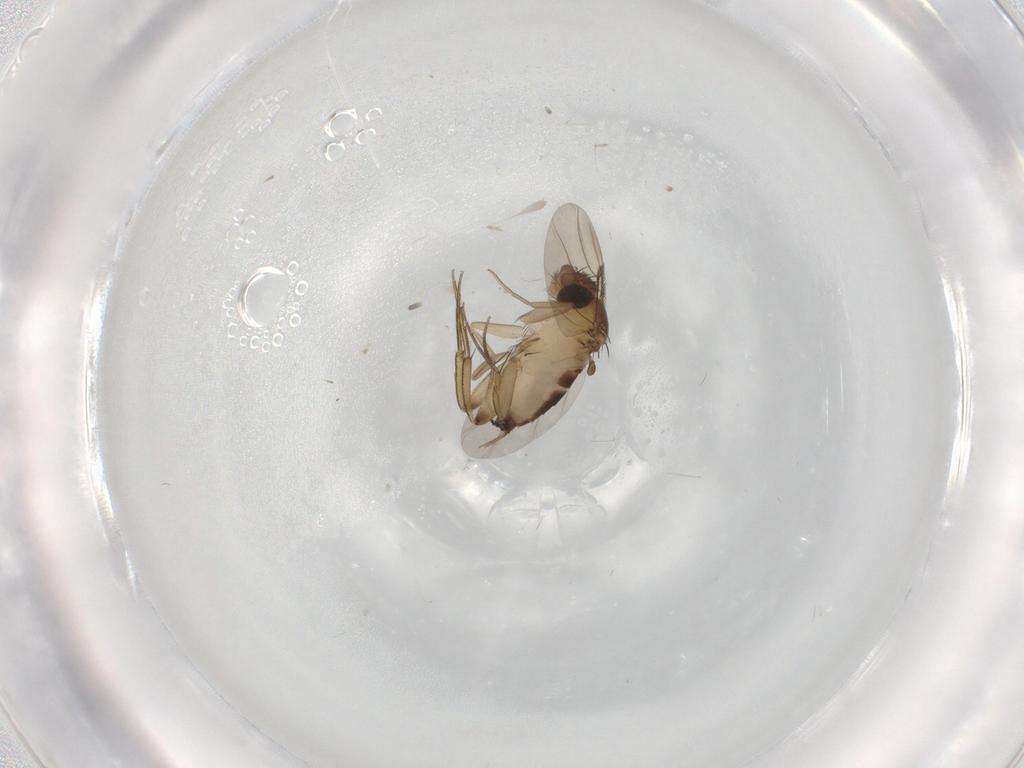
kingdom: Animalia
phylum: Arthropoda
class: Insecta
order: Diptera
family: Phoridae
